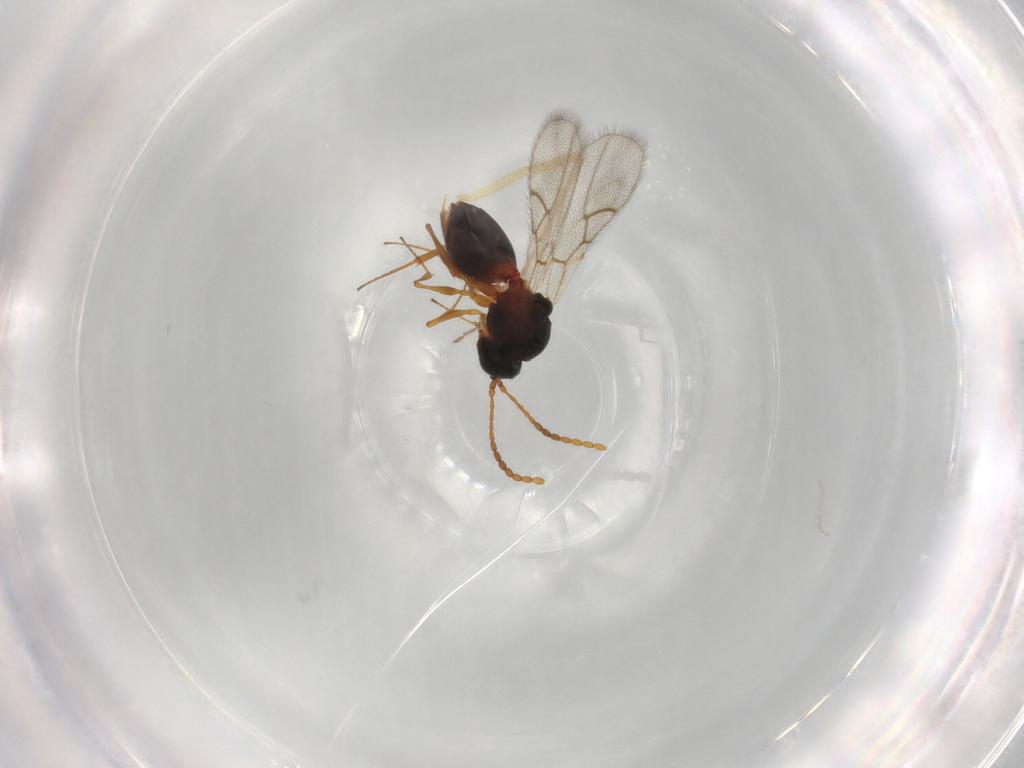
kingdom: Animalia
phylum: Arthropoda
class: Insecta
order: Hymenoptera
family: Figitidae
